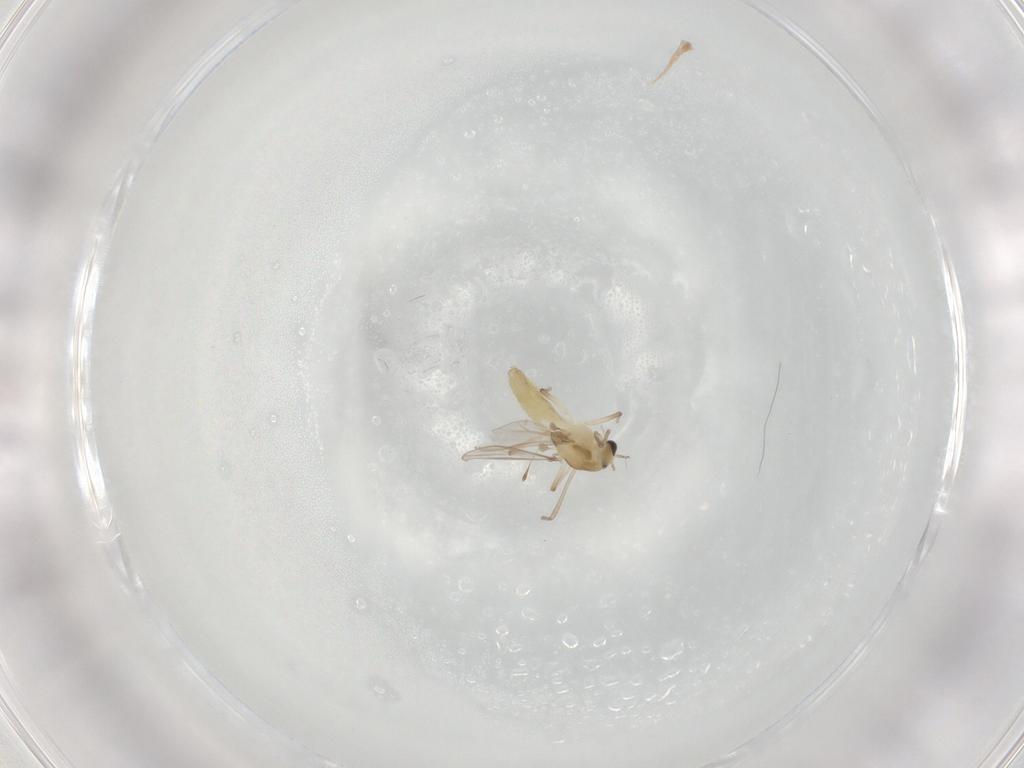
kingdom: Animalia
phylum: Arthropoda
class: Insecta
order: Diptera
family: Chironomidae
